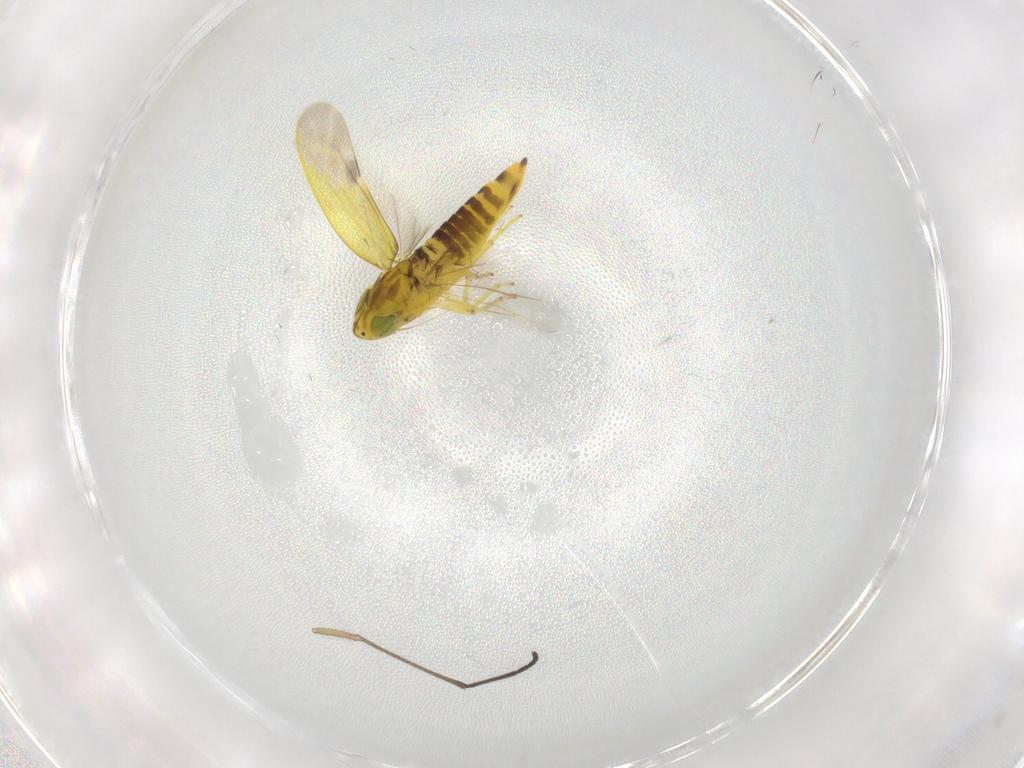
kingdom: Animalia
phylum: Arthropoda
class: Insecta
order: Hemiptera
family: Cicadellidae
